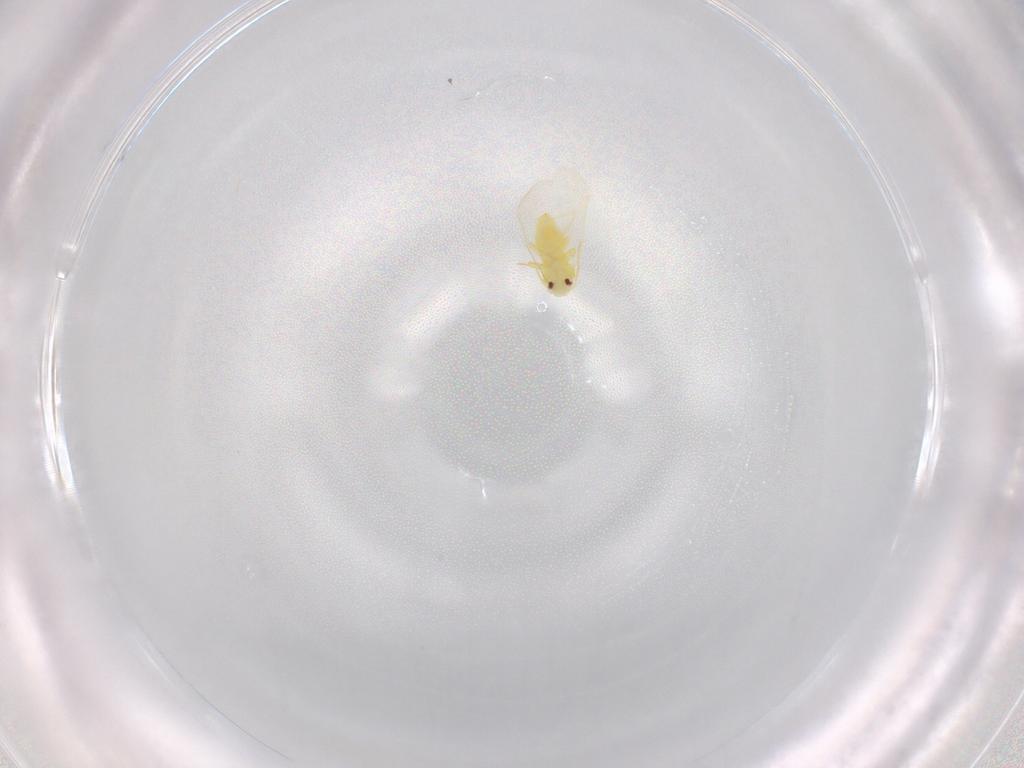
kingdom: Animalia
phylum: Arthropoda
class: Insecta
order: Hemiptera
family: Aleyrodidae
